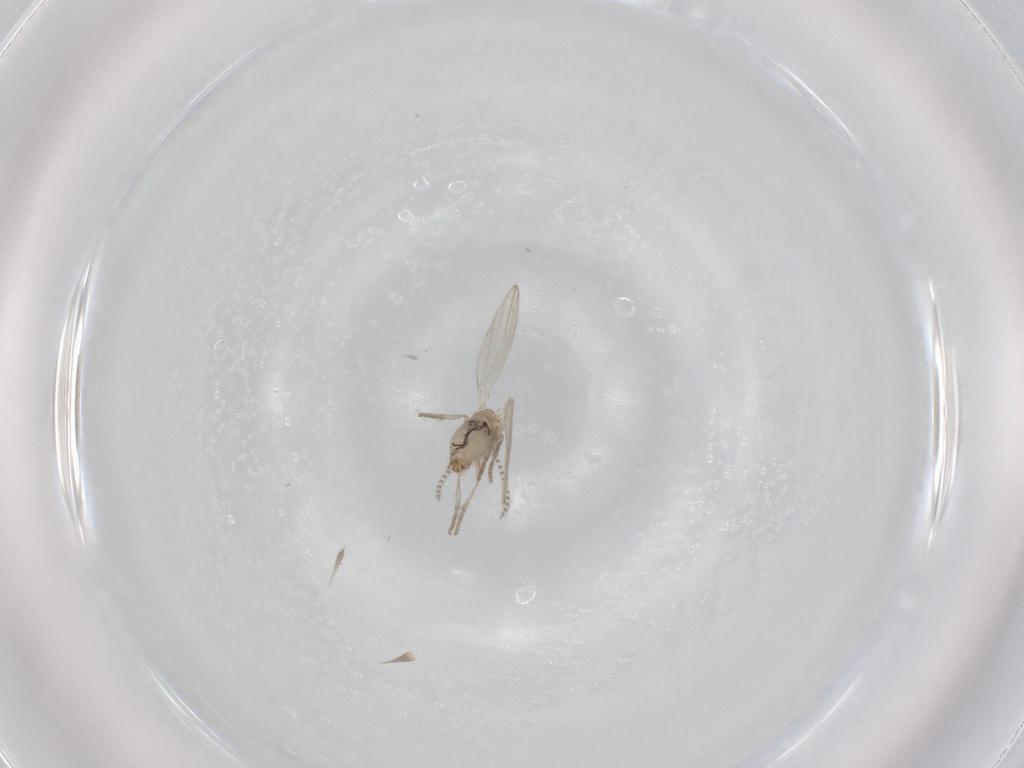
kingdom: Animalia
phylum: Arthropoda
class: Insecta
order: Diptera
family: Psychodidae
